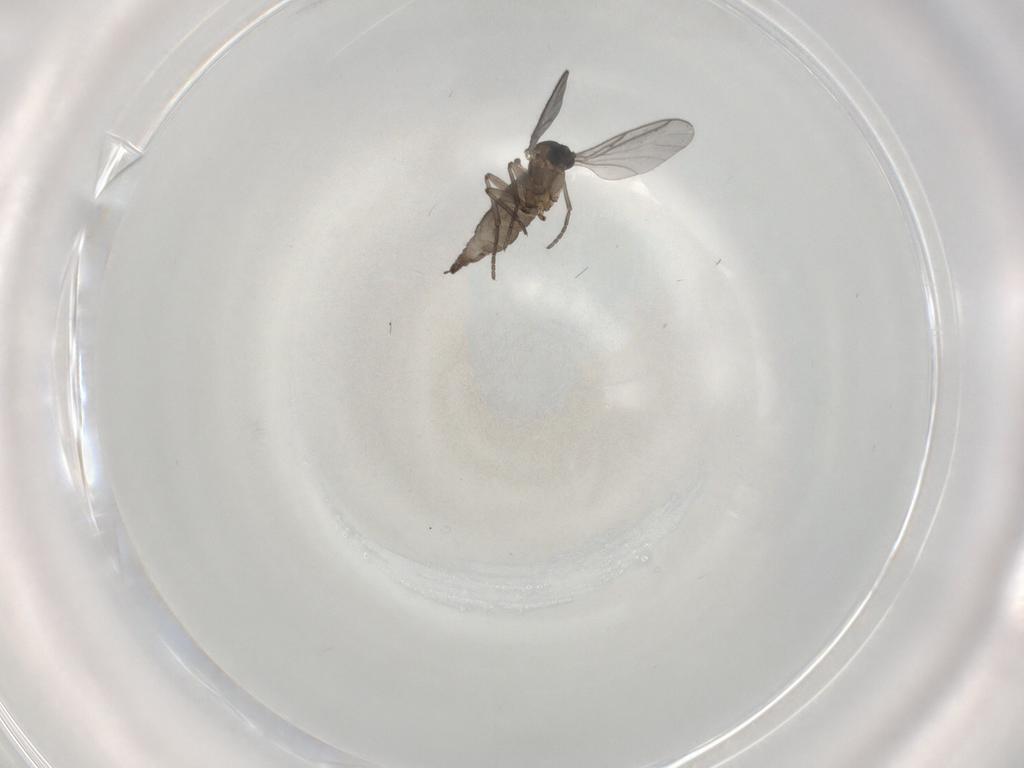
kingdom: Animalia
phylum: Arthropoda
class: Insecta
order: Diptera
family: Sciaridae
